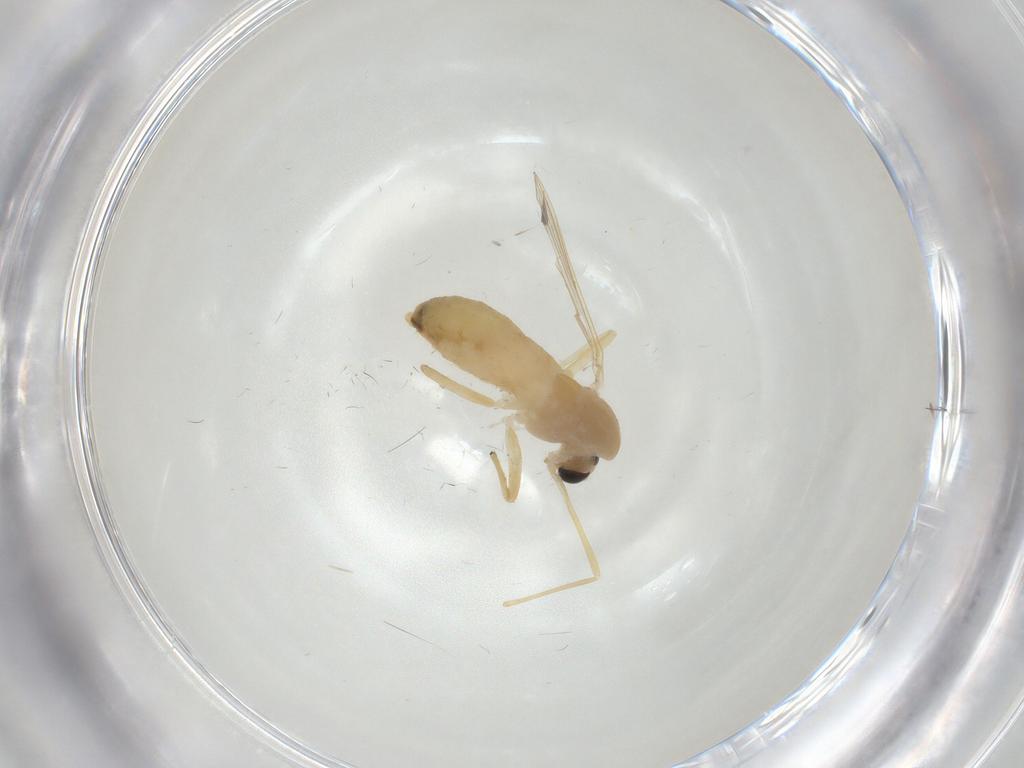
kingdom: Animalia
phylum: Arthropoda
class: Insecta
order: Diptera
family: Chironomidae
